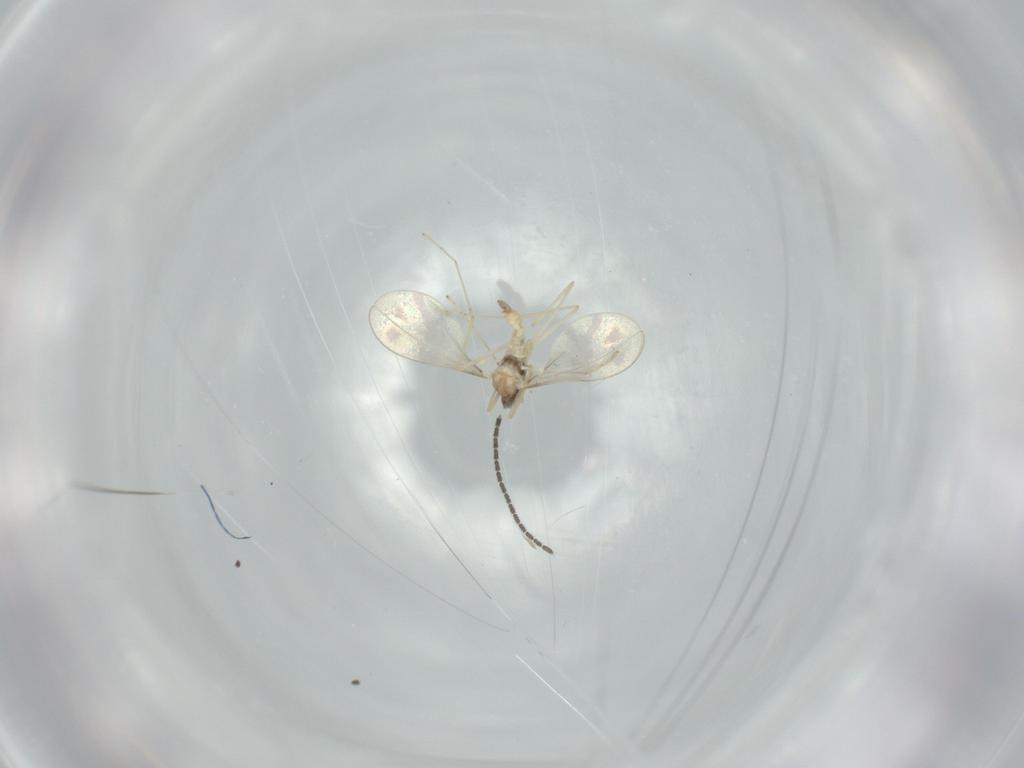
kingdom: Animalia
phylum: Arthropoda
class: Insecta
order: Diptera
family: Cecidomyiidae
